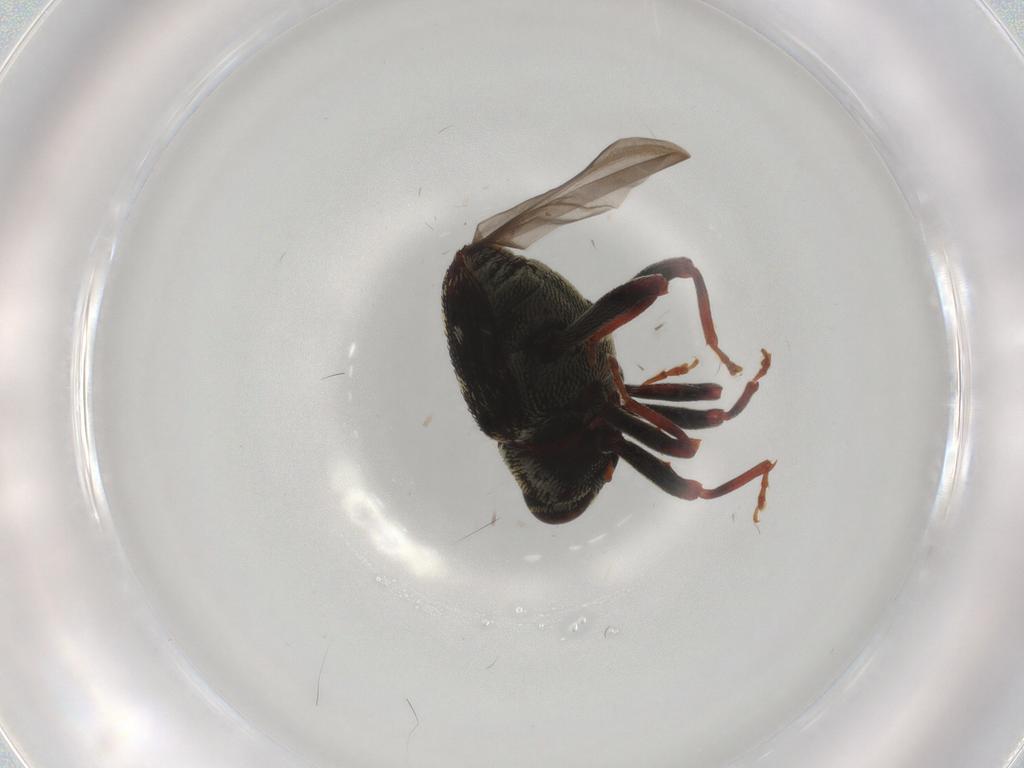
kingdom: Animalia
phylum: Arthropoda
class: Insecta
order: Coleoptera
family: Curculionidae
